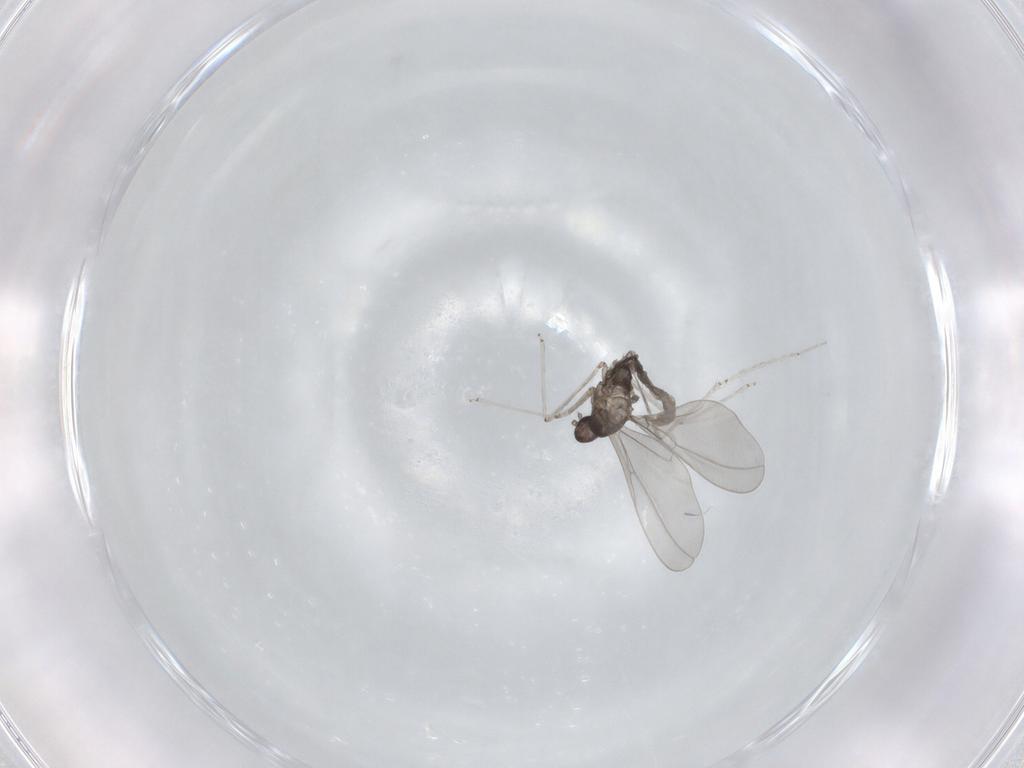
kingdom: Animalia
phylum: Arthropoda
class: Insecta
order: Diptera
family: Cecidomyiidae
